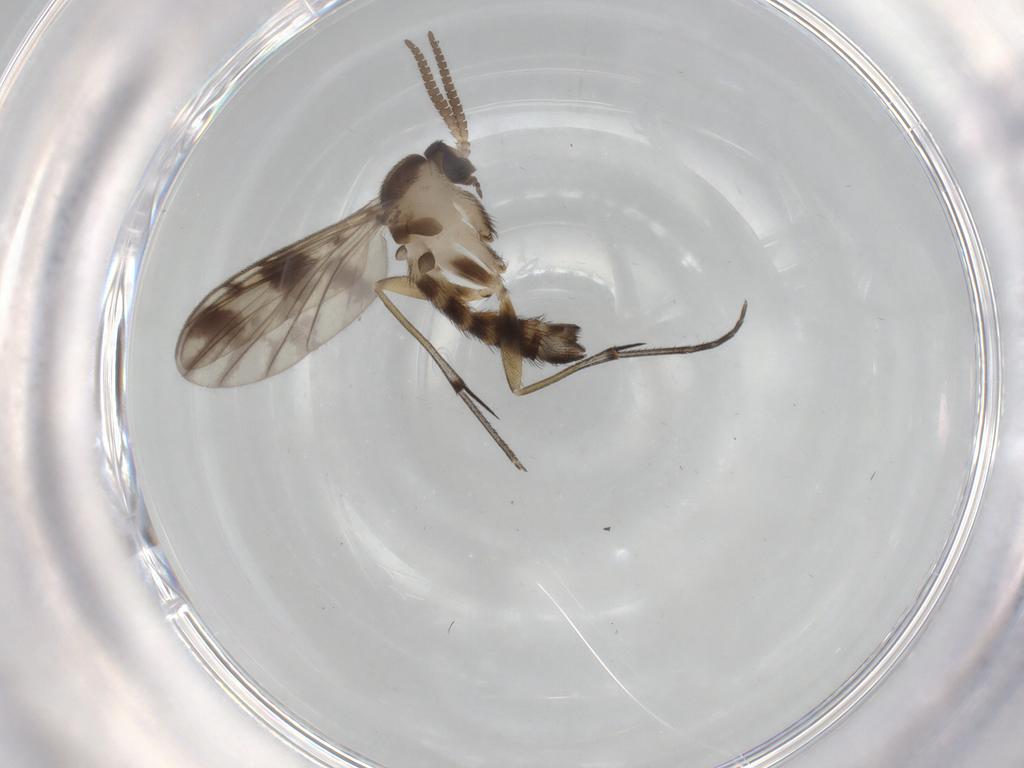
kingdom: Animalia
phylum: Arthropoda
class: Insecta
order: Diptera
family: Keroplatidae
